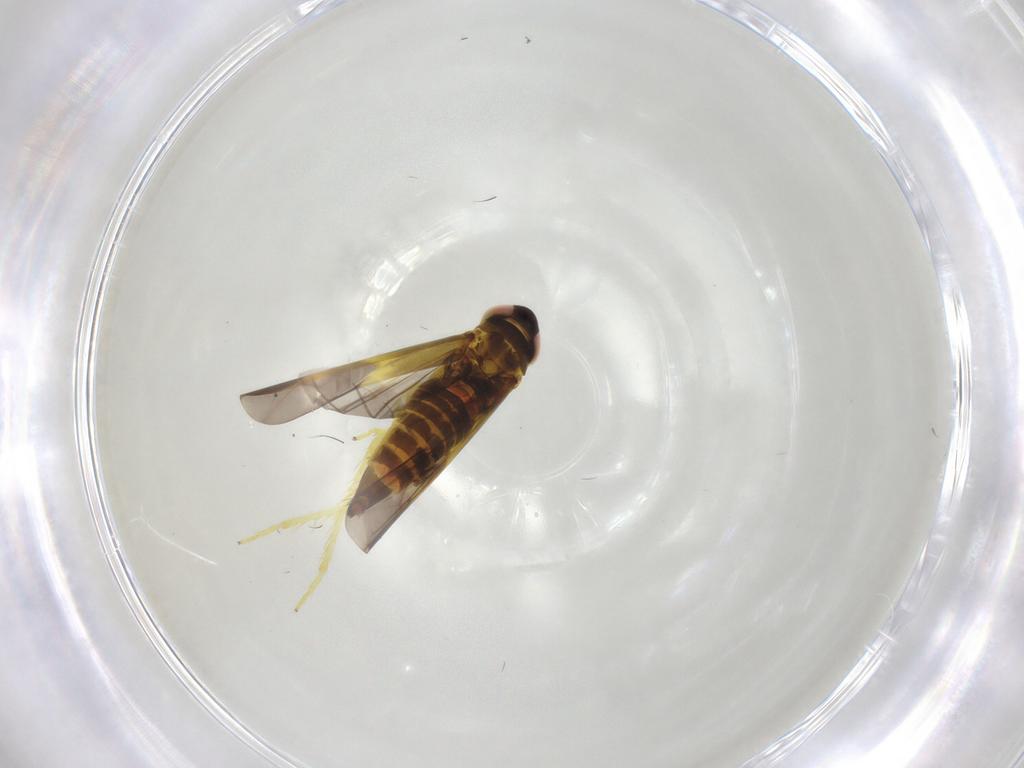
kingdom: Animalia
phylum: Arthropoda
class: Insecta
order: Hemiptera
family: Cicadellidae
